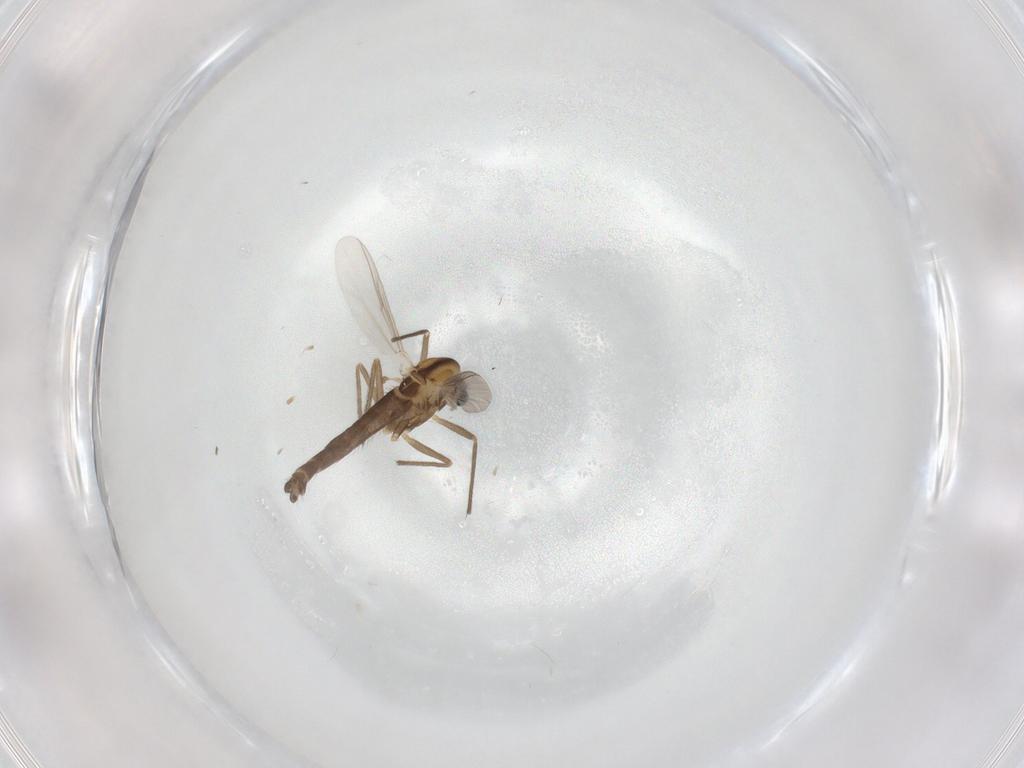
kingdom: Animalia
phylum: Arthropoda
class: Insecta
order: Diptera
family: Chironomidae
